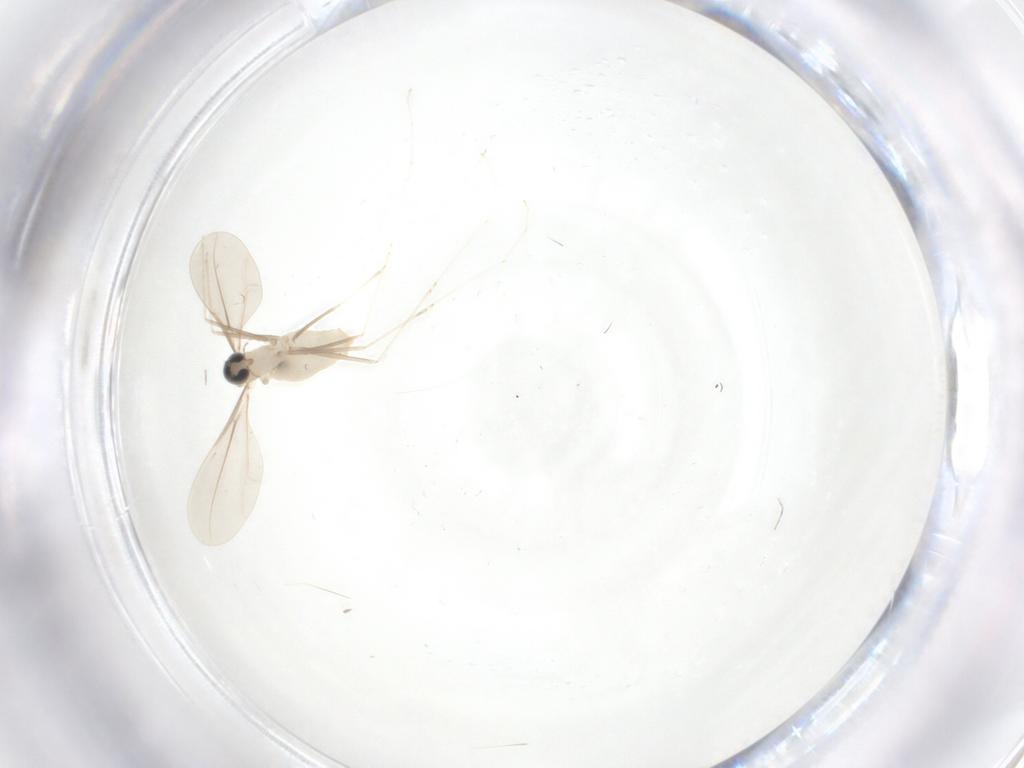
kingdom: Animalia
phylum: Arthropoda
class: Insecta
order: Diptera
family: Cecidomyiidae
